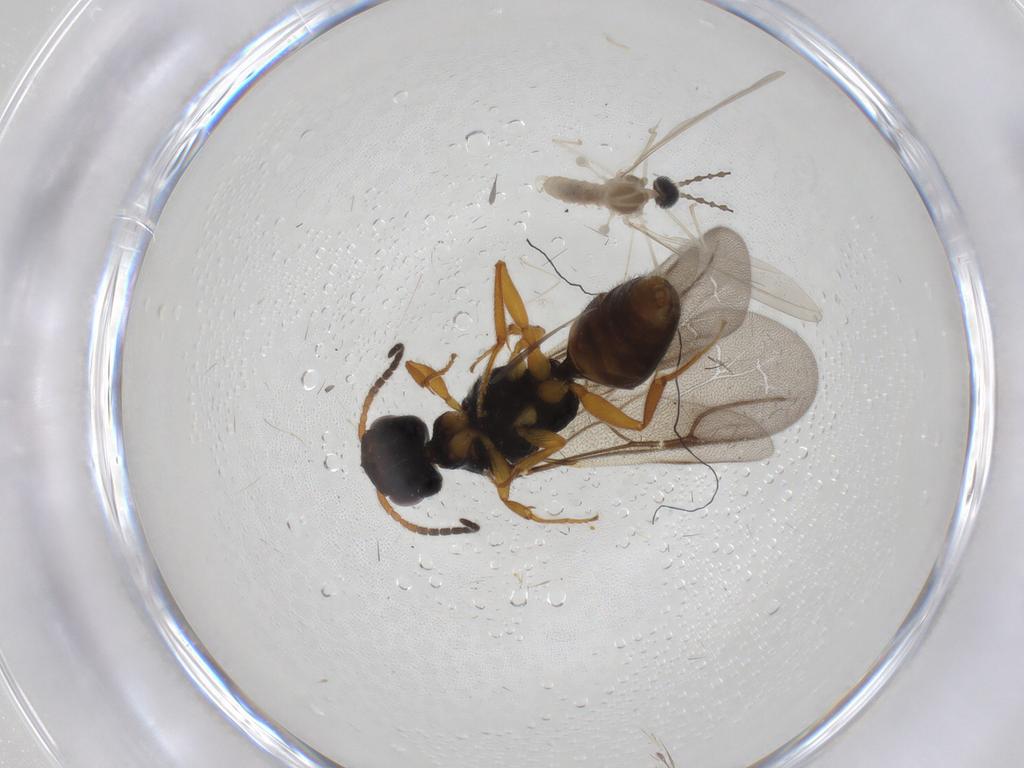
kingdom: Animalia
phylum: Arthropoda
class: Insecta
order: Diptera
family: Cecidomyiidae
